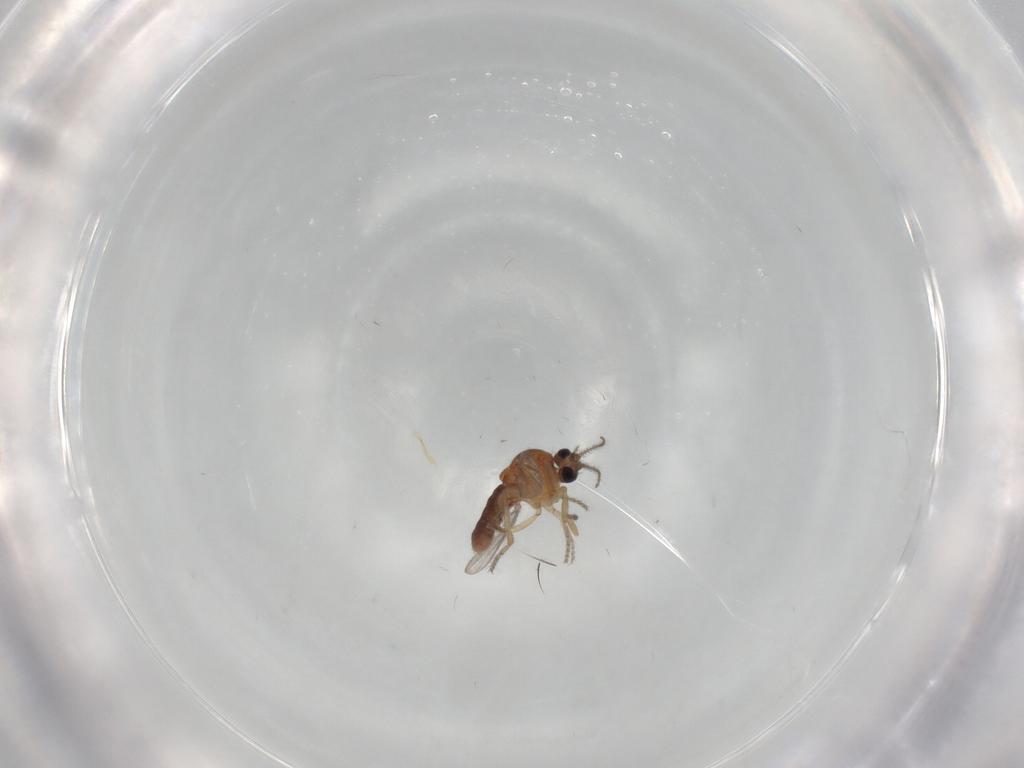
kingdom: Animalia
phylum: Arthropoda
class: Insecta
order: Diptera
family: Ceratopogonidae
